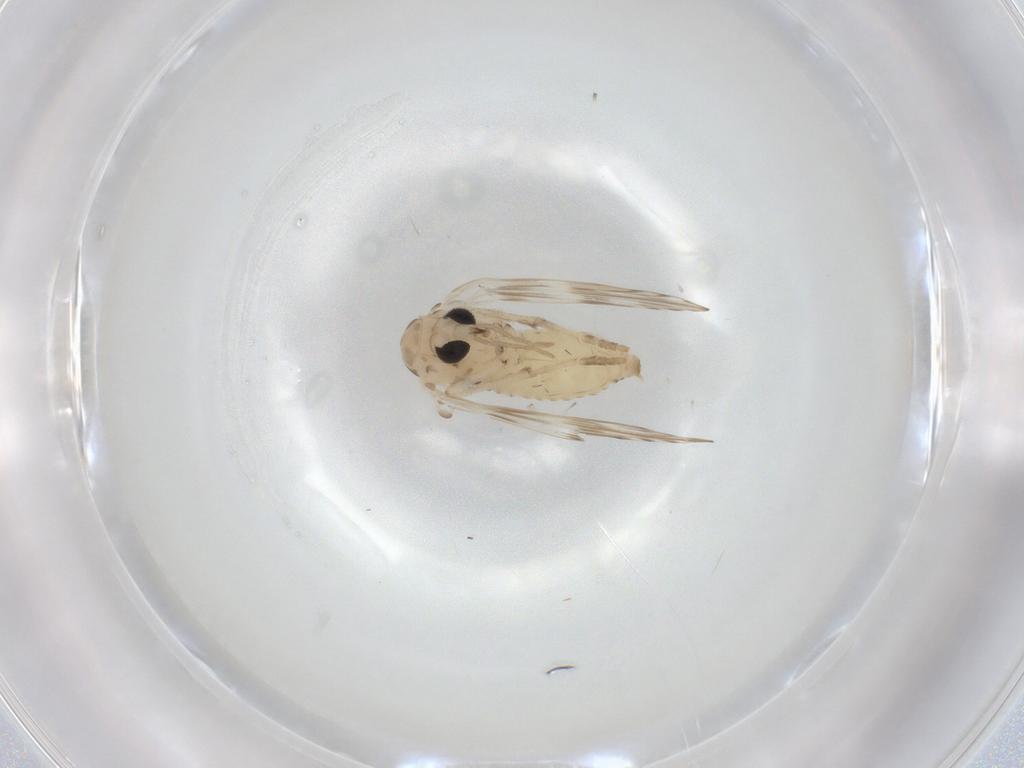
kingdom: Animalia
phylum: Arthropoda
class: Insecta
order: Diptera
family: Psychodidae
